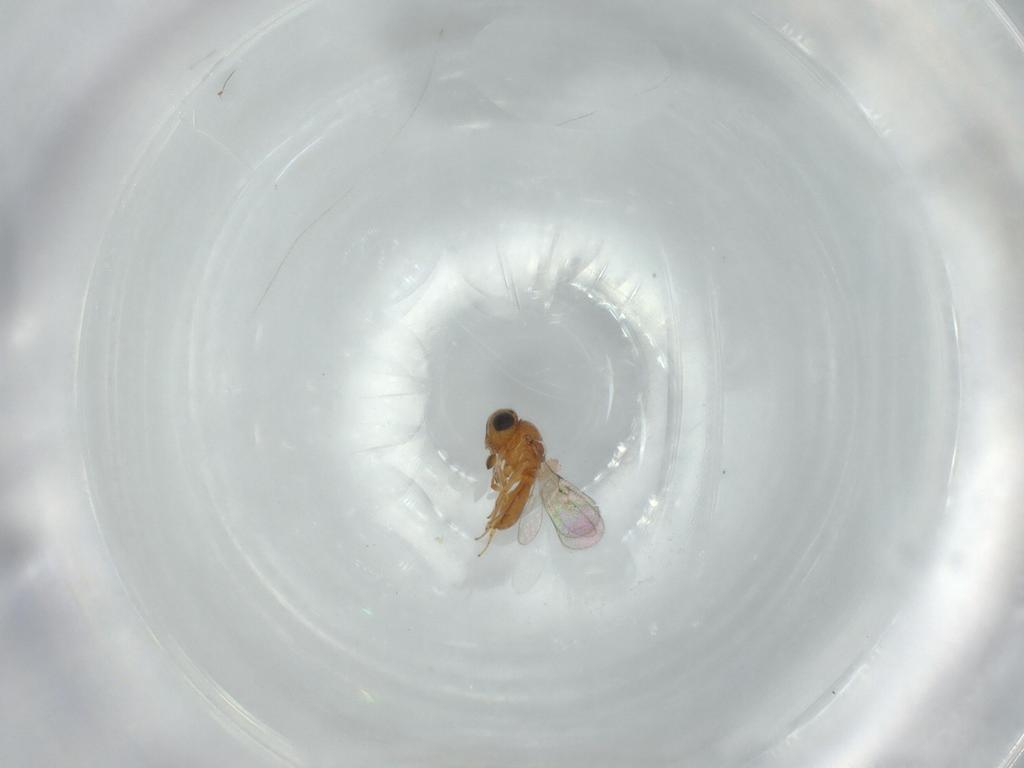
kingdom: Animalia
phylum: Arthropoda
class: Insecta
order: Hymenoptera
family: Scelionidae
